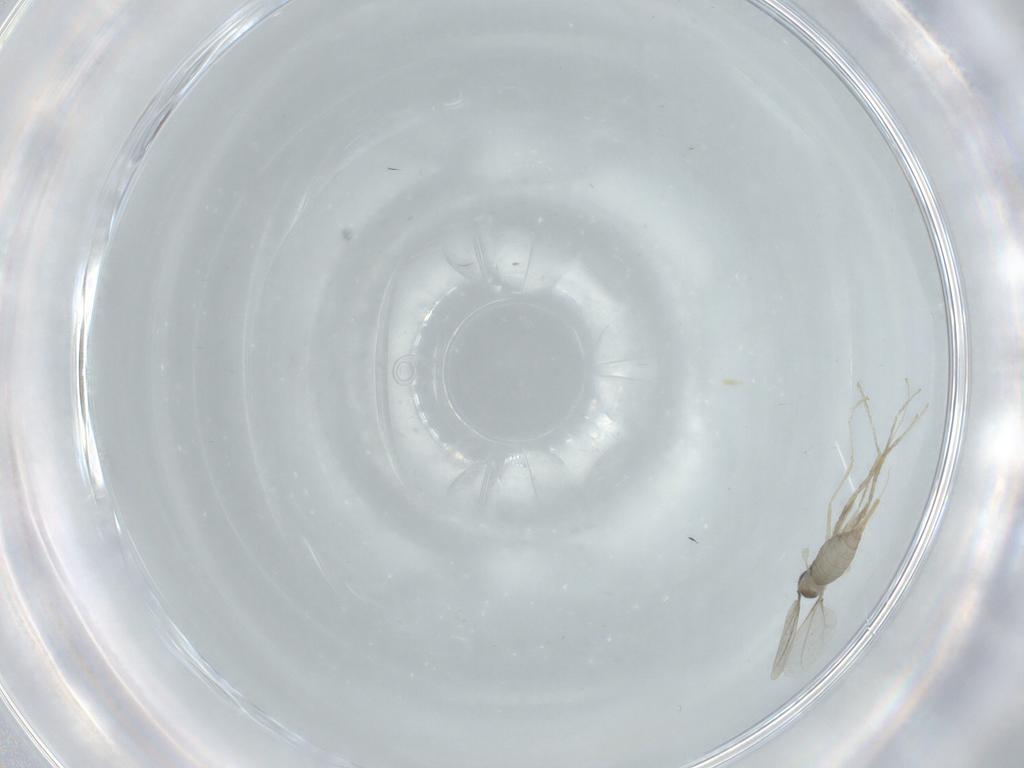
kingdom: Animalia
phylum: Arthropoda
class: Insecta
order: Diptera
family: Cecidomyiidae
